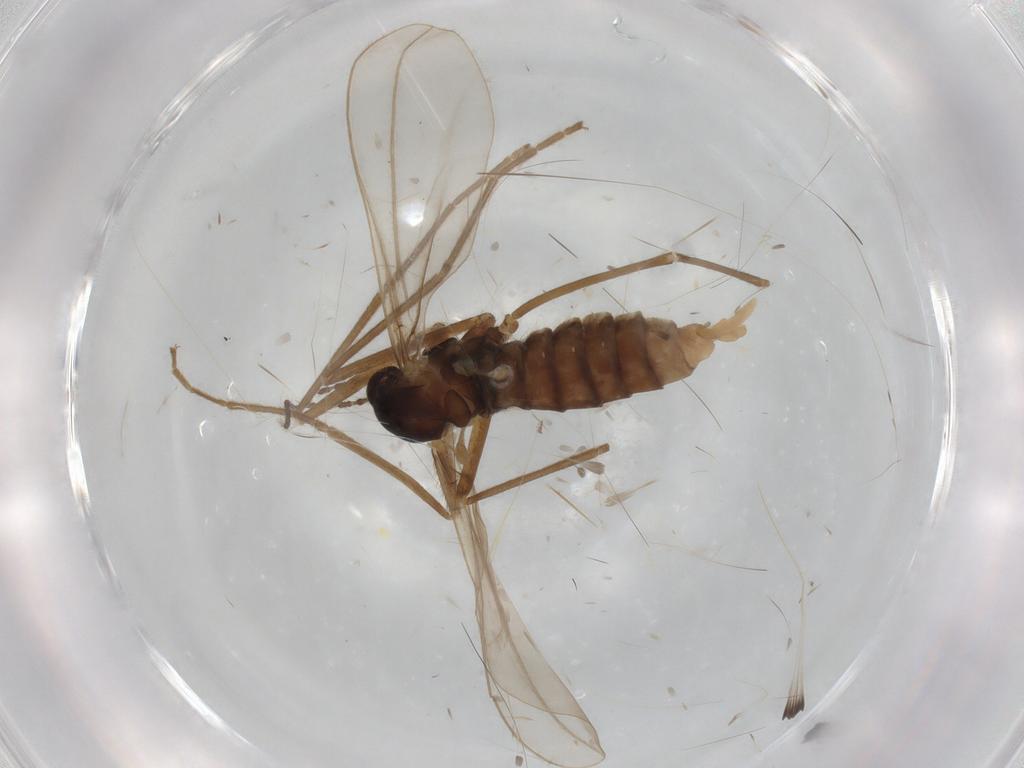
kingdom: Animalia
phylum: Arthropoda
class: Insecta
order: Diptera
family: Cecidomyiidae
